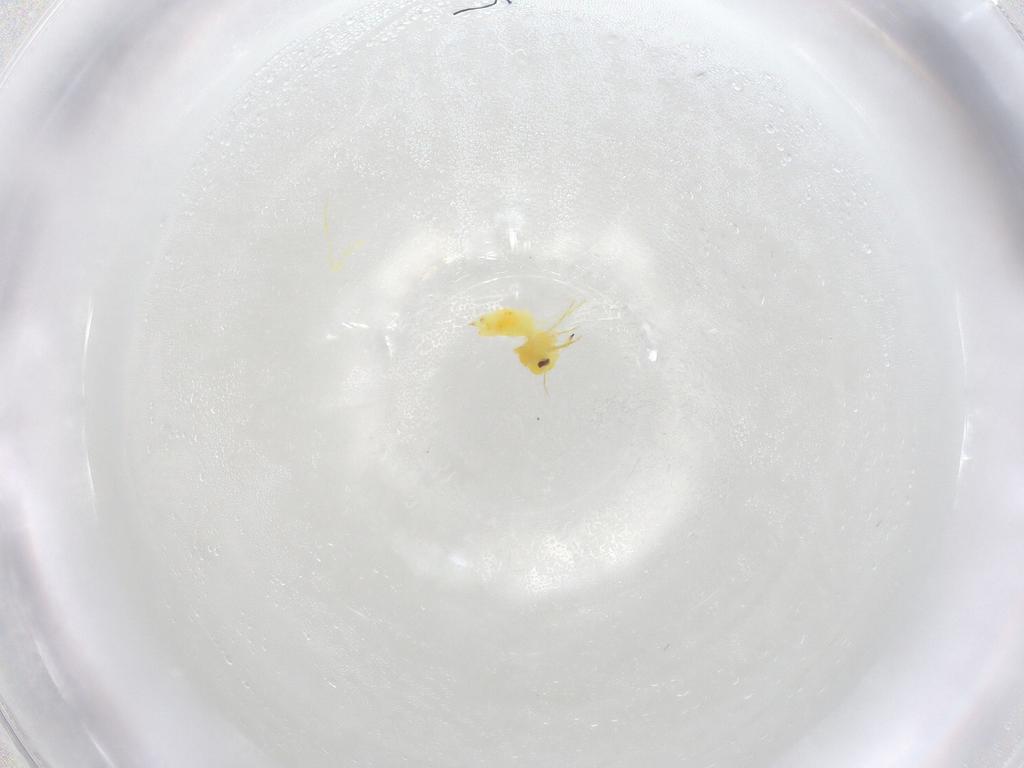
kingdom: Animalia
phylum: Arthropoda
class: Insecta
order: Hemiptera
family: Aleyrodidae
